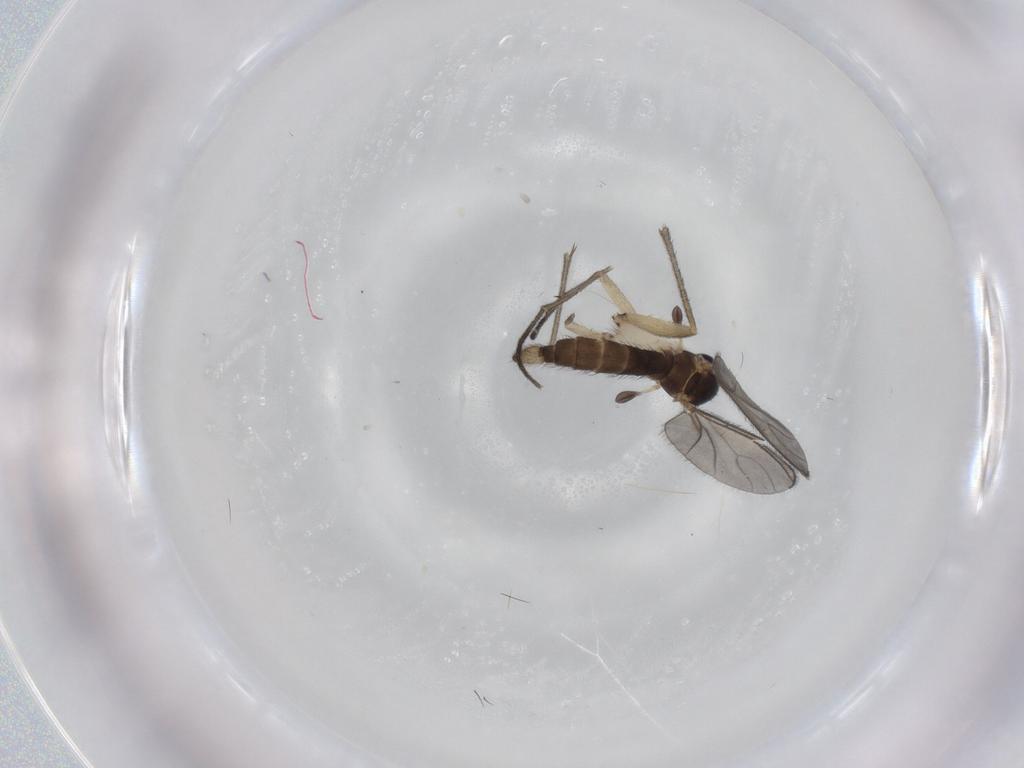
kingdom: Animalia
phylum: Arthropoda
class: Insecta
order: Diptera
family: Sciaridae
